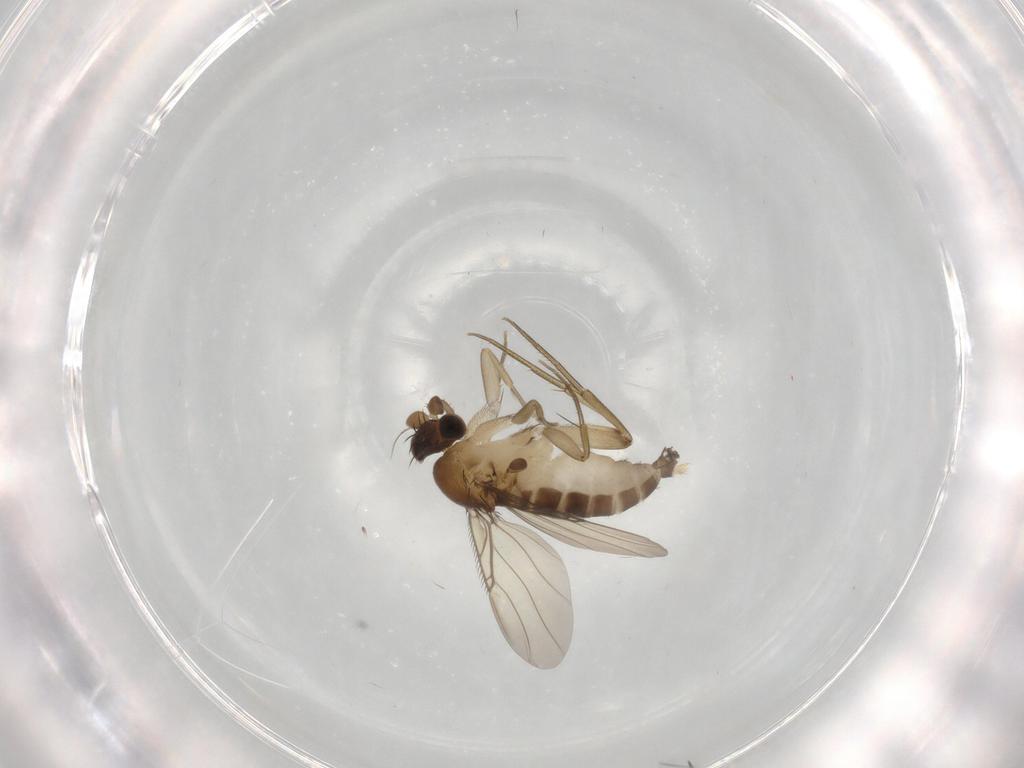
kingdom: Animalia
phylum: Arthropoda
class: Insecta
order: Diptera
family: Phoridae
